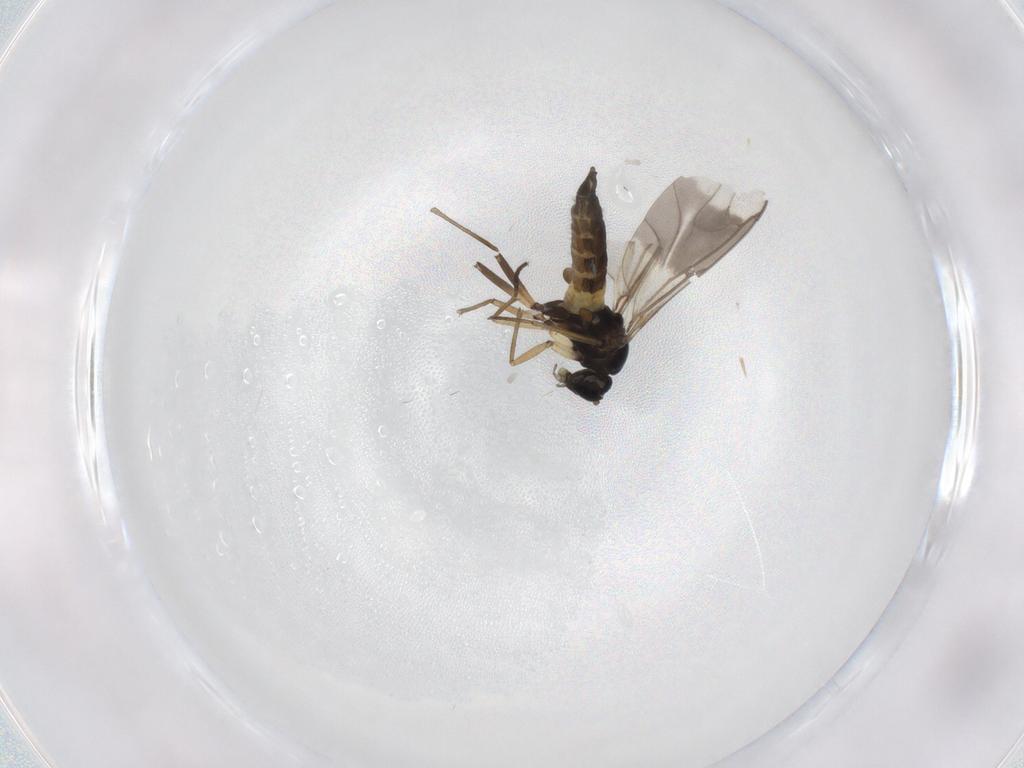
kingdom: Animalia
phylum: Arthropoda
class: Insecta
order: Diptera
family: Sciaridae
